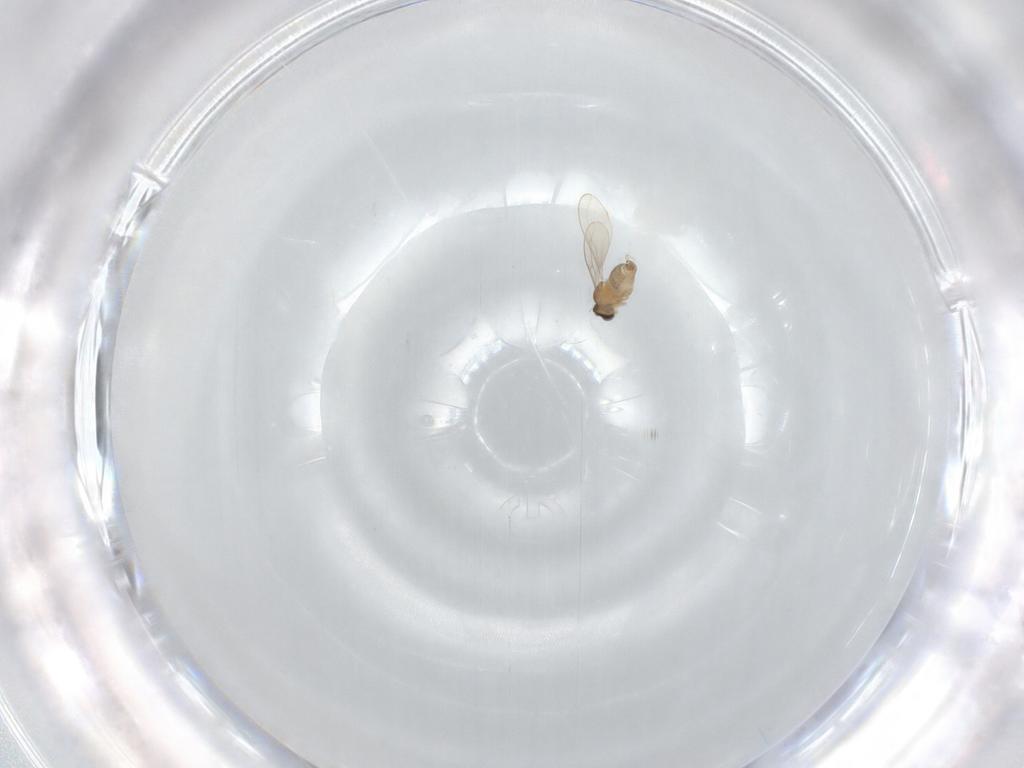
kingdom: Animalia
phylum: Arthropoda
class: Insecta
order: Diptera
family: Cecidomyiidae
